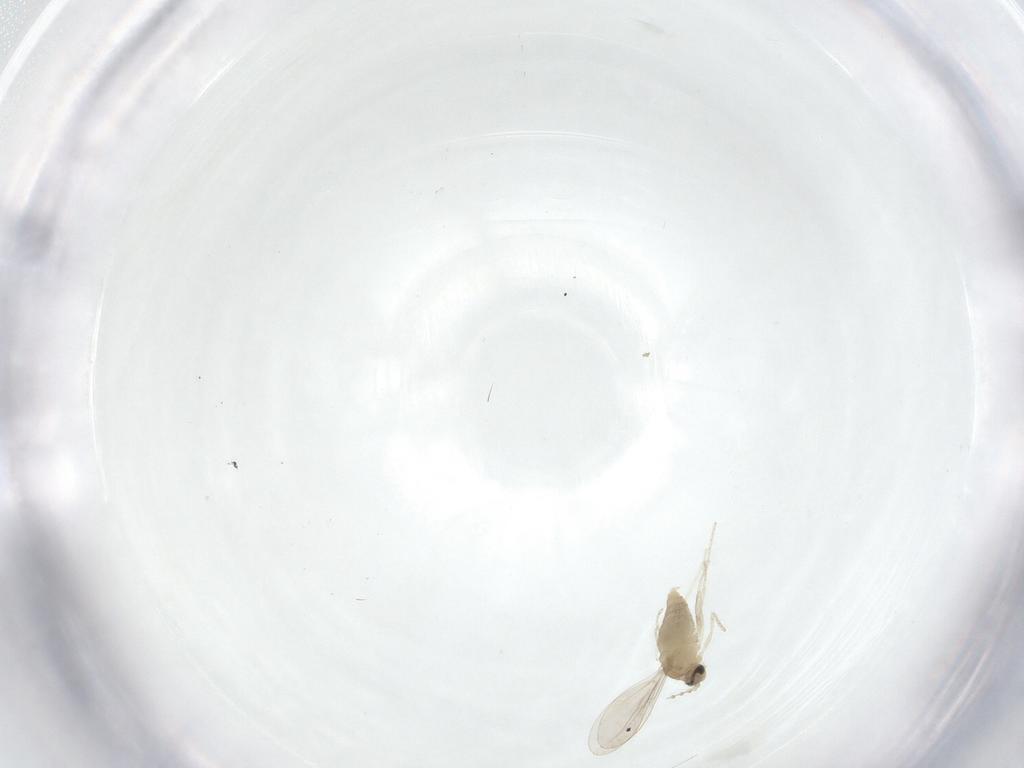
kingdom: Animalia
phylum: Arthropoda
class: Insecta
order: Diptera
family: Cecidomyiidae
